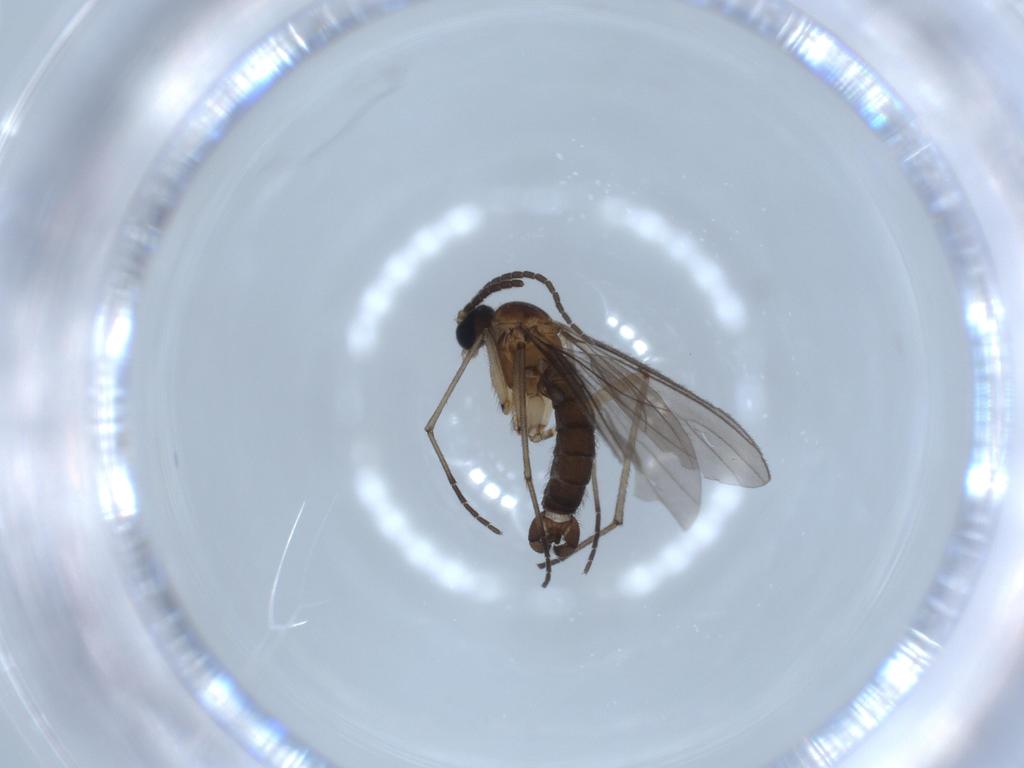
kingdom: Animalia
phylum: Arthropoda
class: Insecta
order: Diptera
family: Sciaridae
